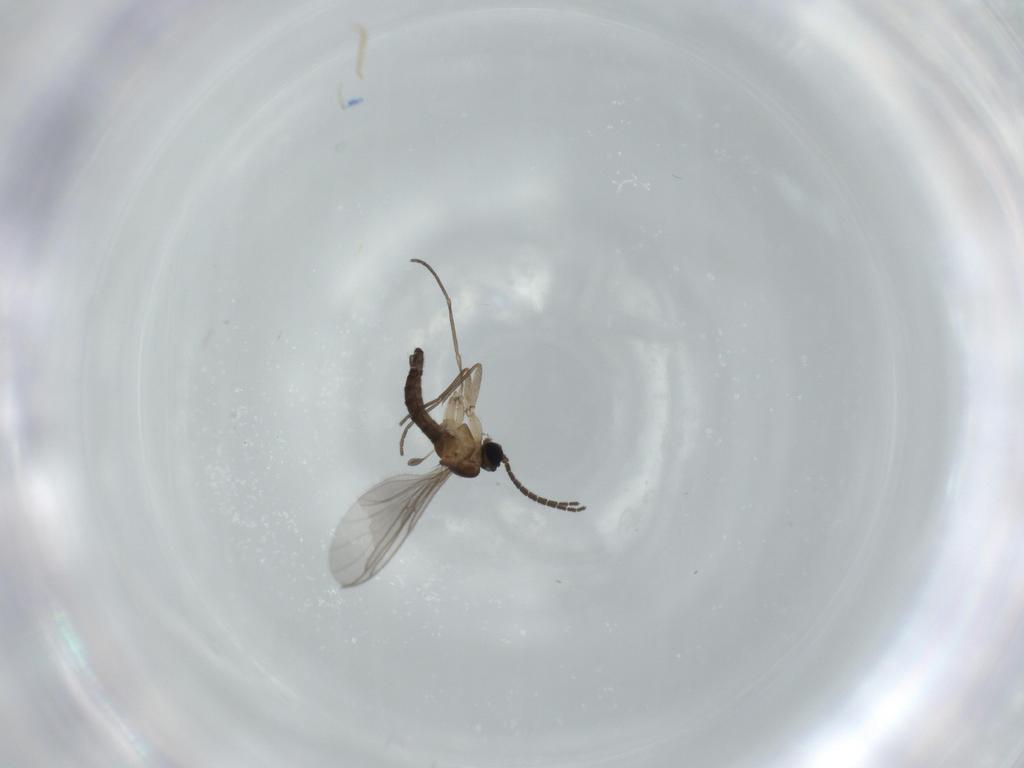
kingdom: Animalia
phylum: Arthropoda
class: Insecta
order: Diptera
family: Sciaridae
